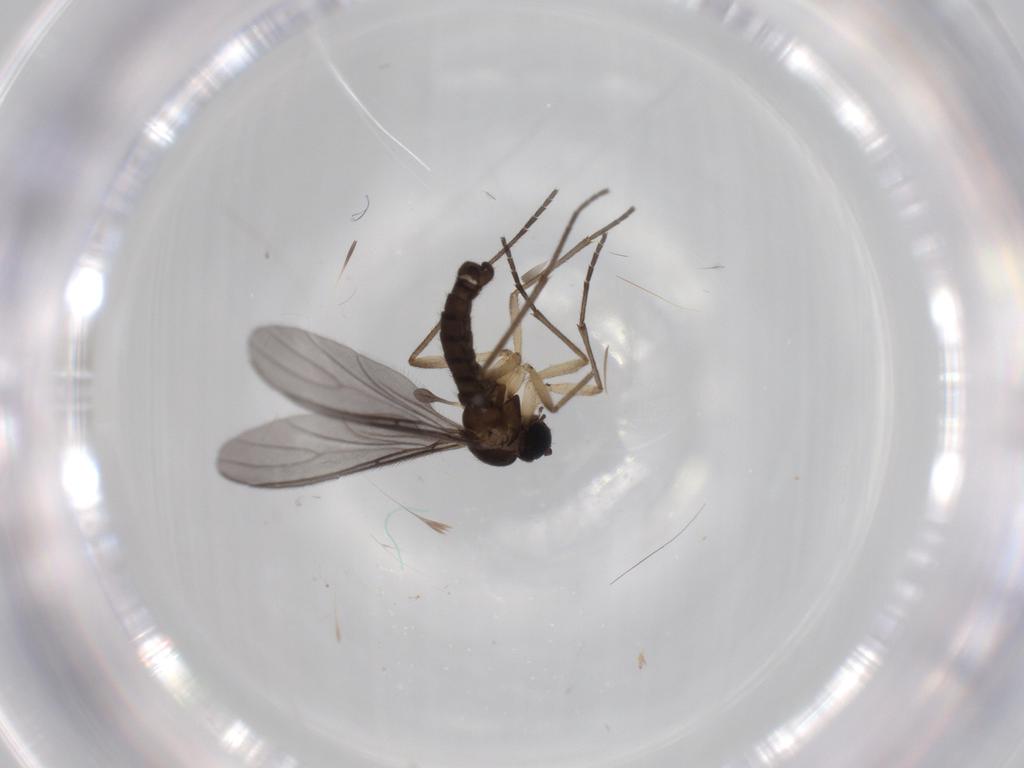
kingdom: Animalia
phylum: Arthropoda
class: Insecta
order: Diptera
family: Sciaridae
